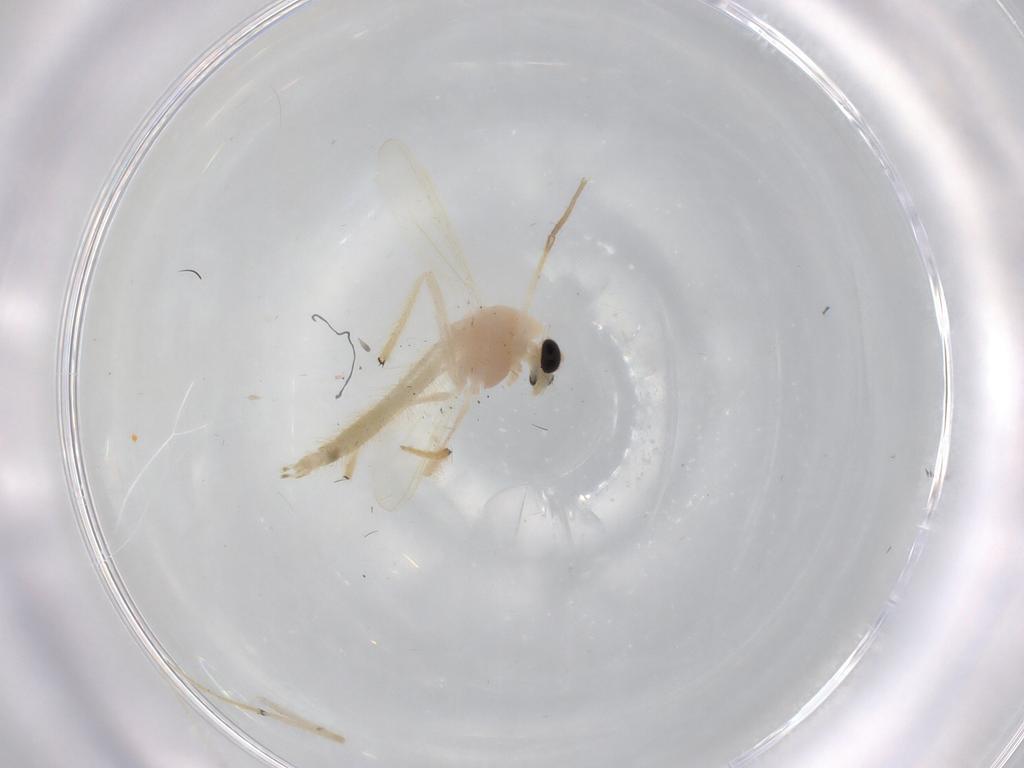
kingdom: Animalia
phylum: Arthropoda
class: Insecta
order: Diptera
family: Chironomidae
